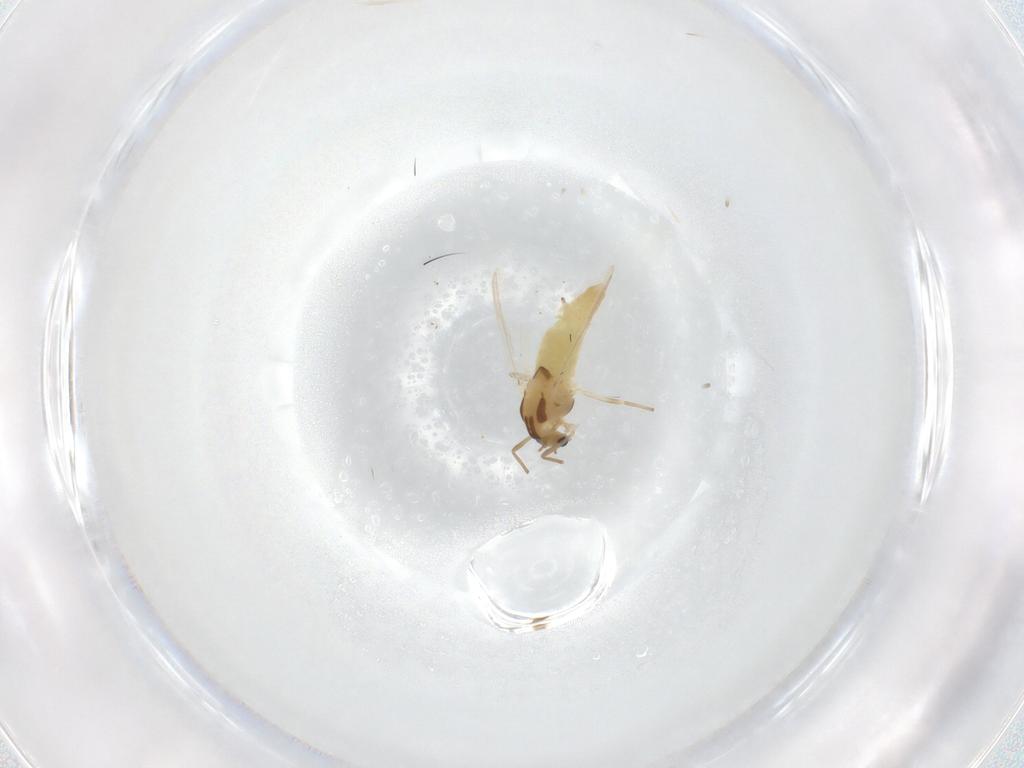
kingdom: Animalia
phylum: Arthropoda
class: Insecta
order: Diptera
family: Chironomidae
